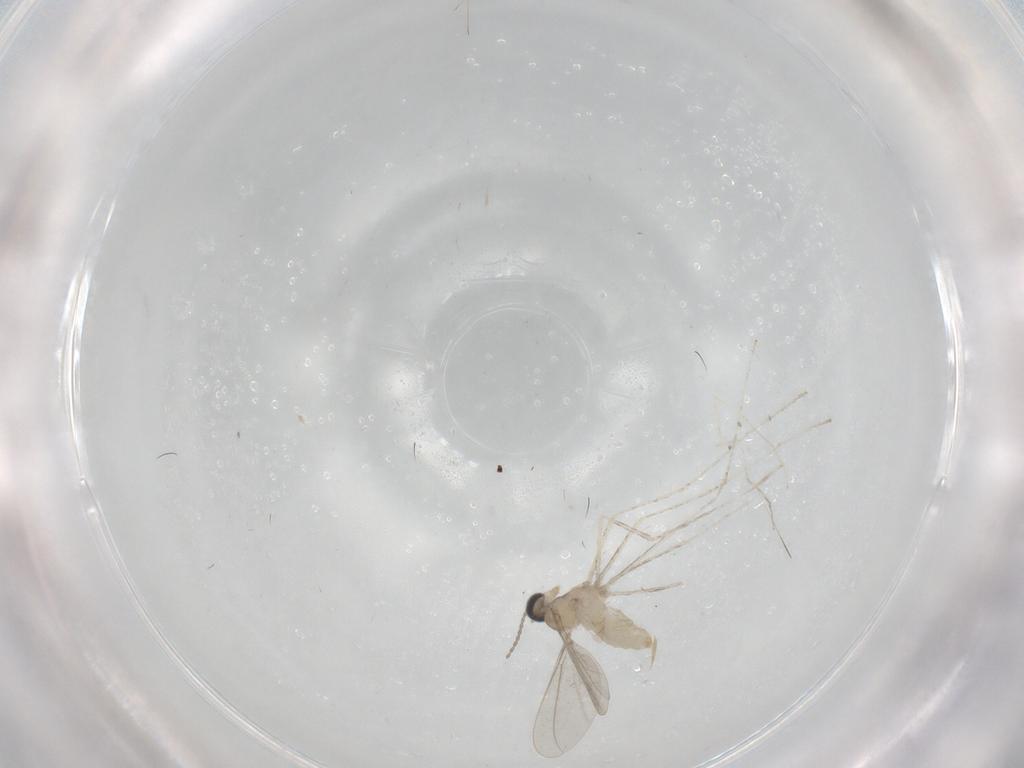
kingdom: Animalia
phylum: Arthropoda
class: Insecta
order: Diptera
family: Cecidomyiidae
